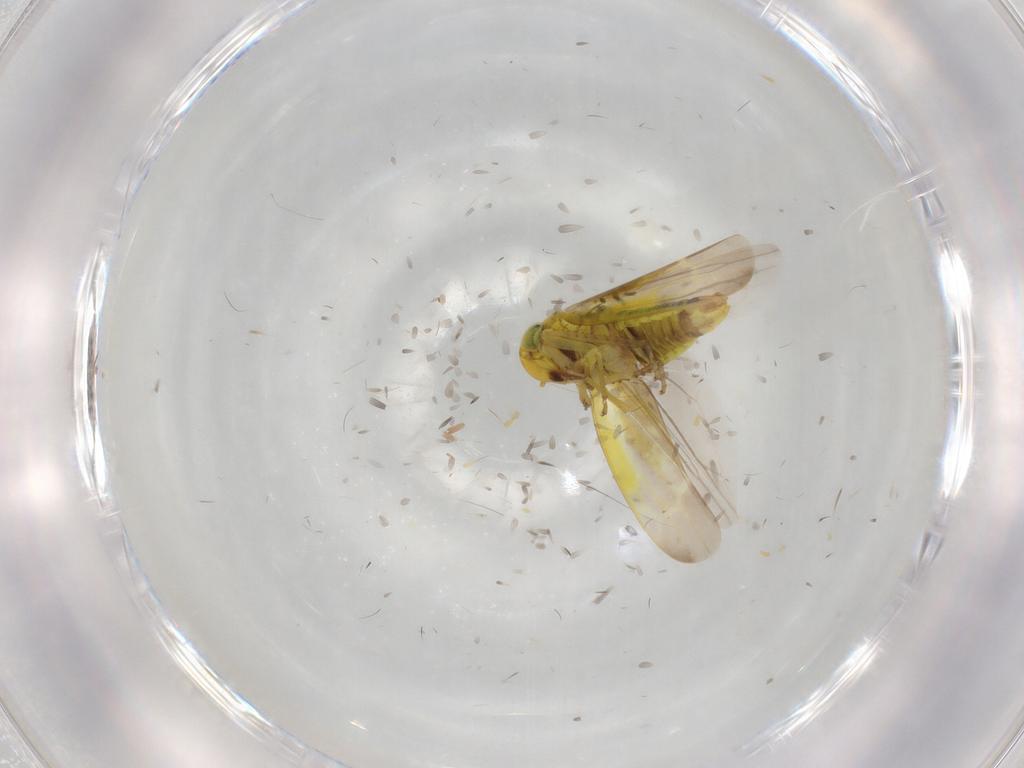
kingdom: Animalia
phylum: Arthropoda
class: Insecta
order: Hemiptera
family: Cicadellidae
